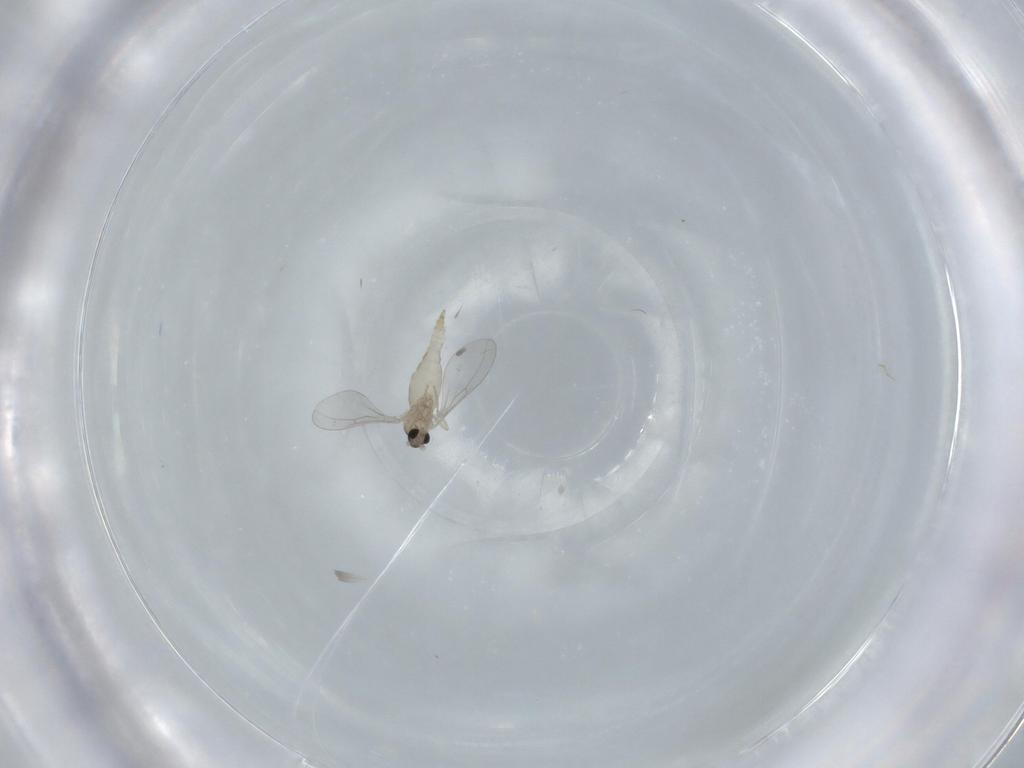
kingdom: Animalia
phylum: Arthropoda
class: Insecta
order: Diptera
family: Cecidomyiidae
